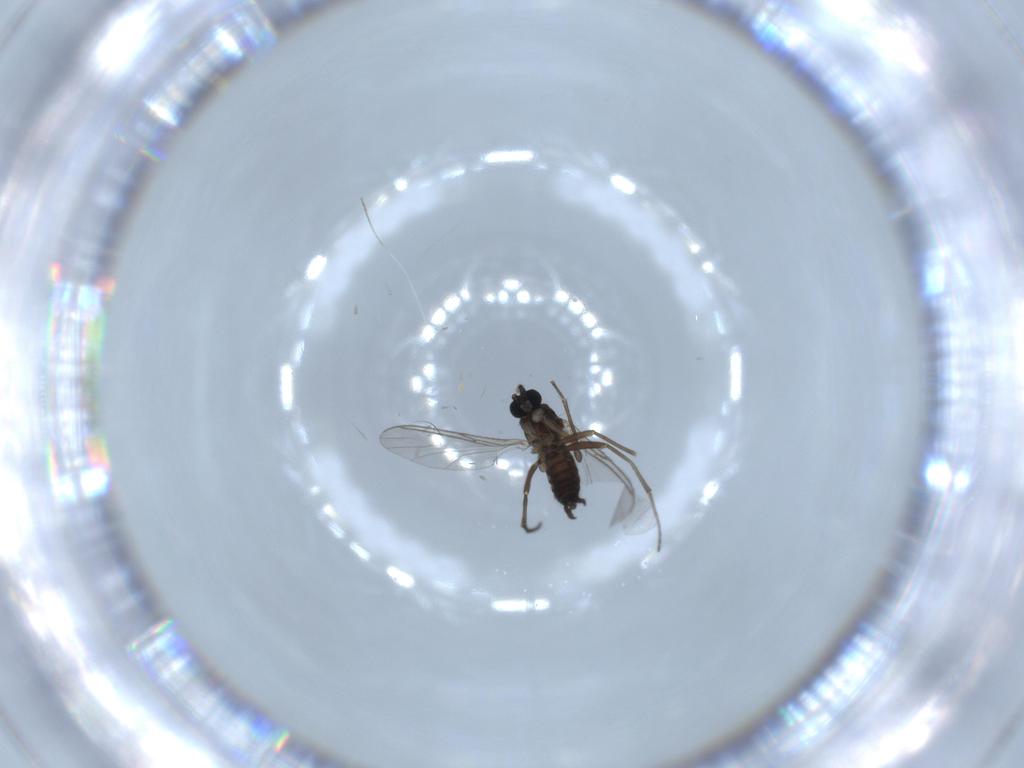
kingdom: Animalia
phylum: Arthropoda
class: Insecta
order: Diptera
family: Sciaridae
